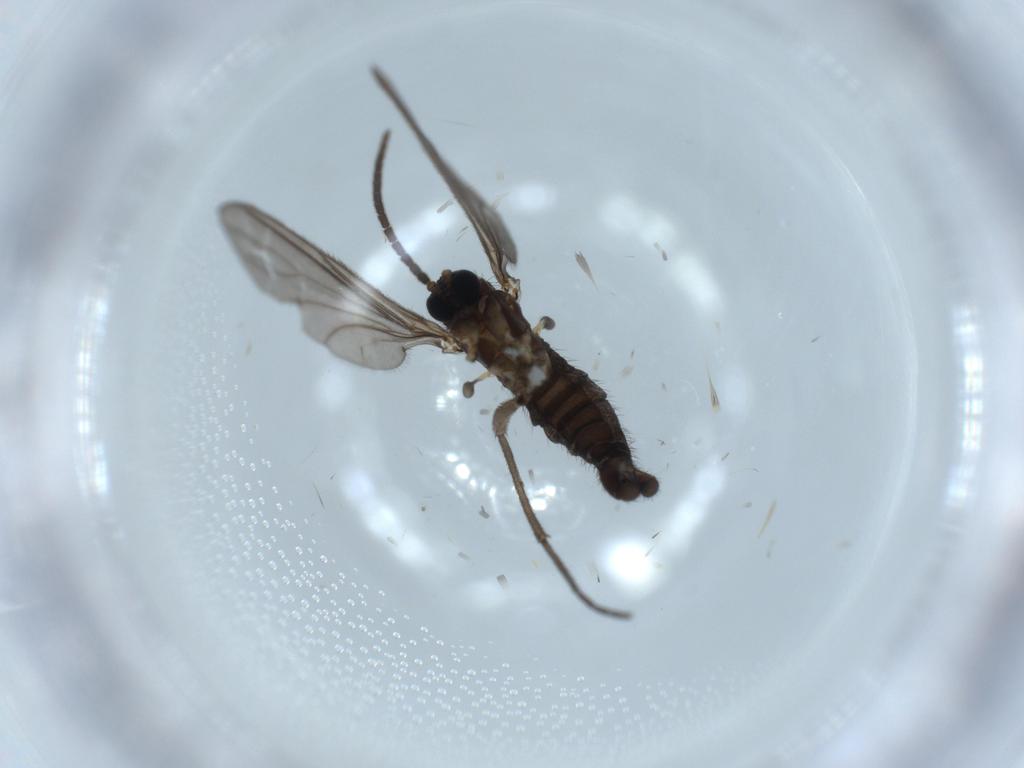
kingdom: Animalia
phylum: Arthropoda
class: Insecta
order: Diptera
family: Sciaridae
